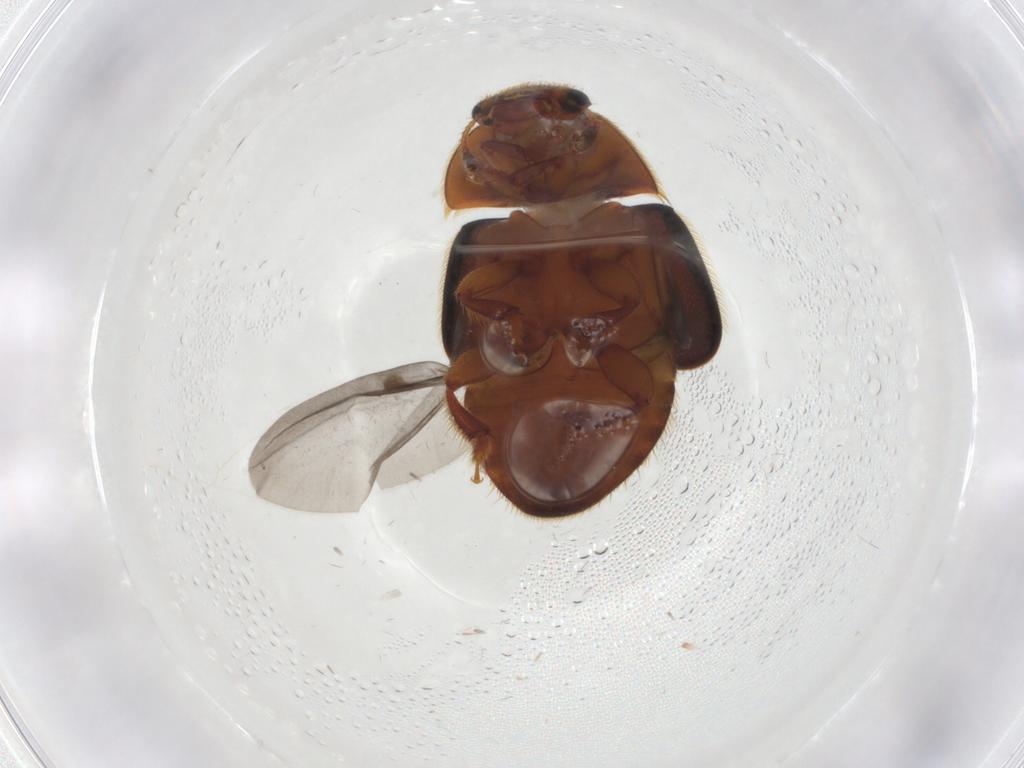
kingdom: Animalia
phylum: Arthropoda
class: Insecta
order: Coleoptera
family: Nitidulidae
